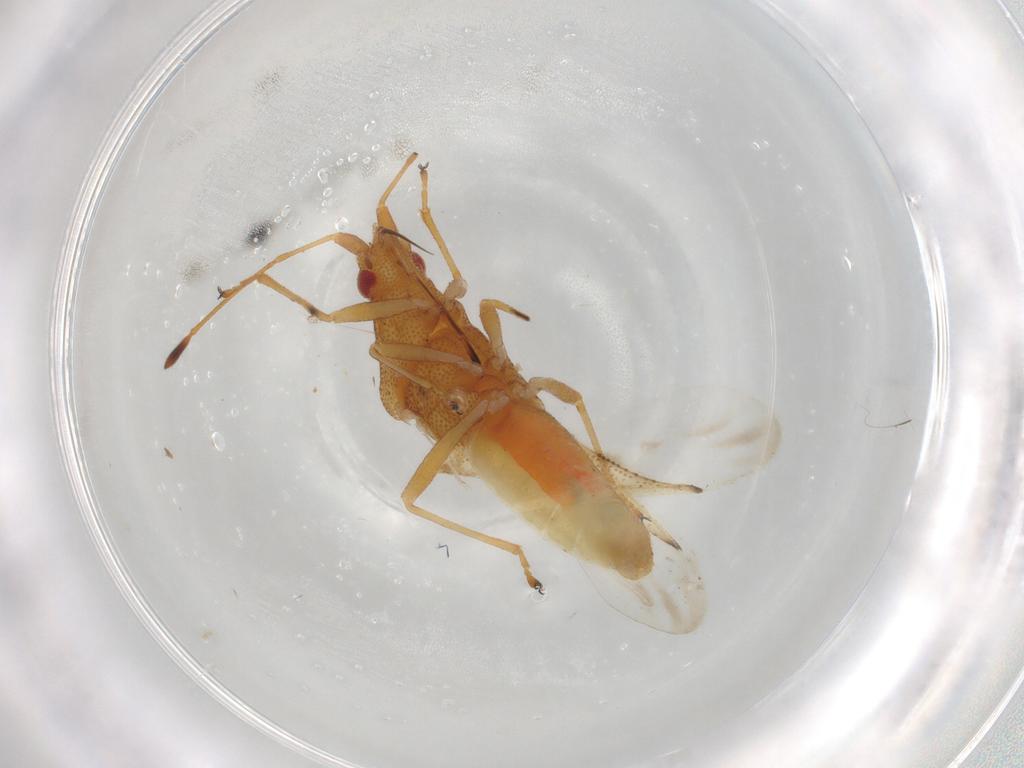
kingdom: Animalia
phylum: Arthropoda
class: Insecta
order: Hemiptera
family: Cymidae
